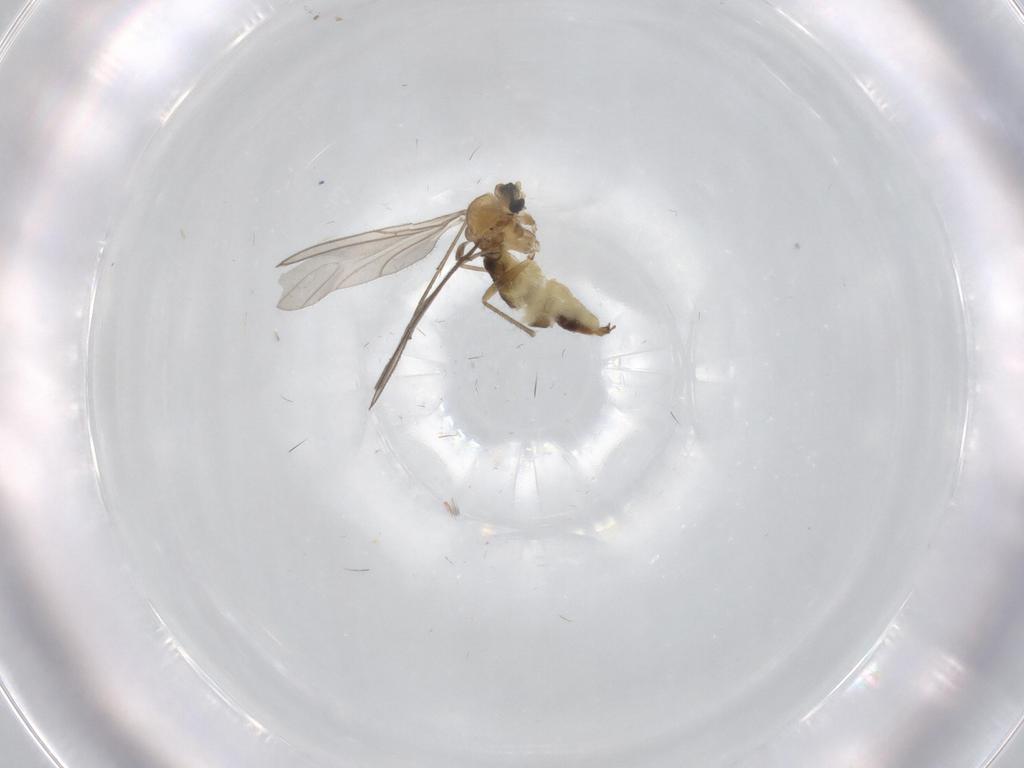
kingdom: Animalia
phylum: Arthropoda
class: Insecta
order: Diptera
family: Sciaridae
